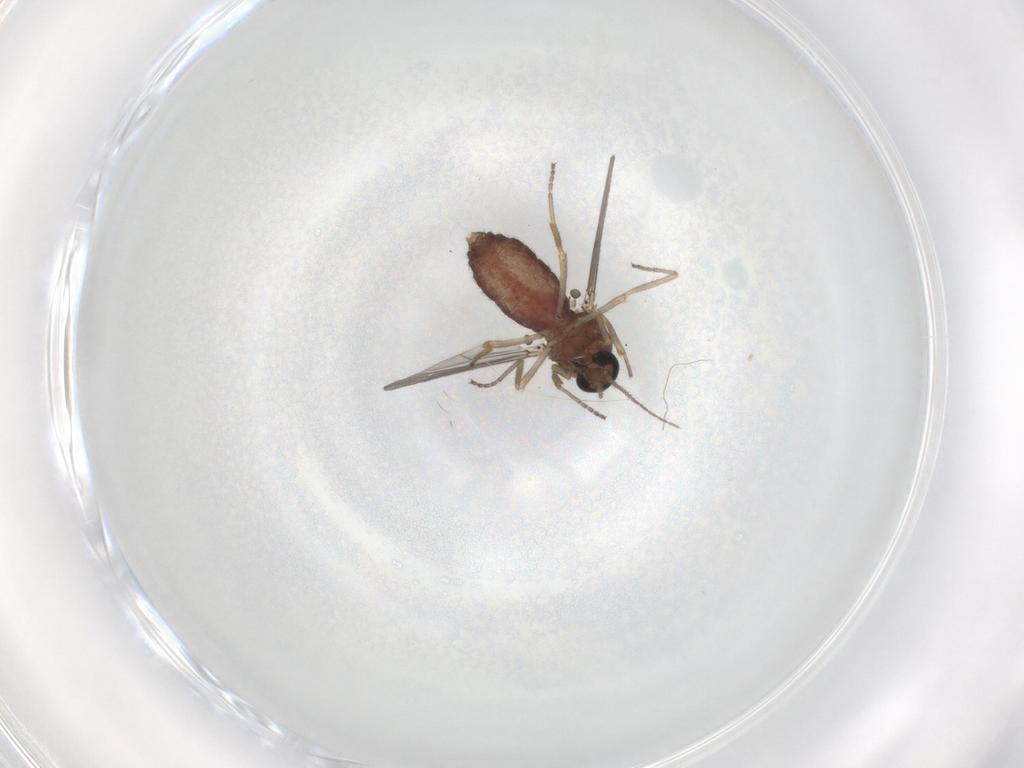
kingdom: Animalia
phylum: Arthropoda
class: Insecta
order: Diptera
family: Ceratopogonidae
